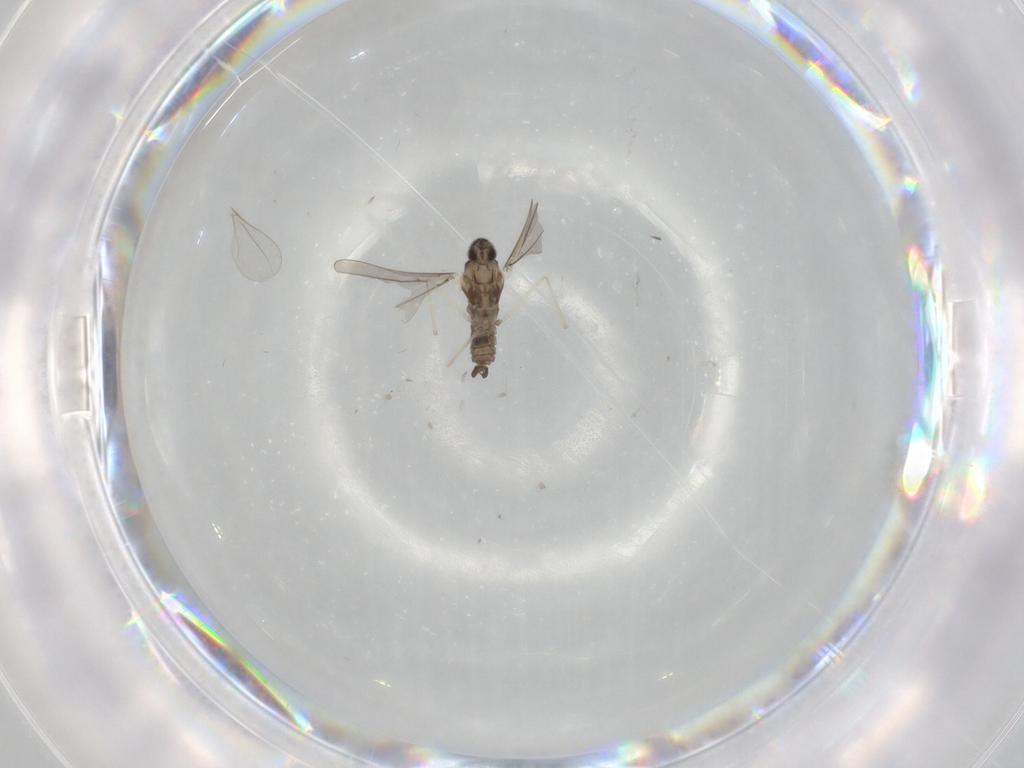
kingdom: Animalia
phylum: Arthropoda
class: Insecta
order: Diptera
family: Cecidomyiidae
